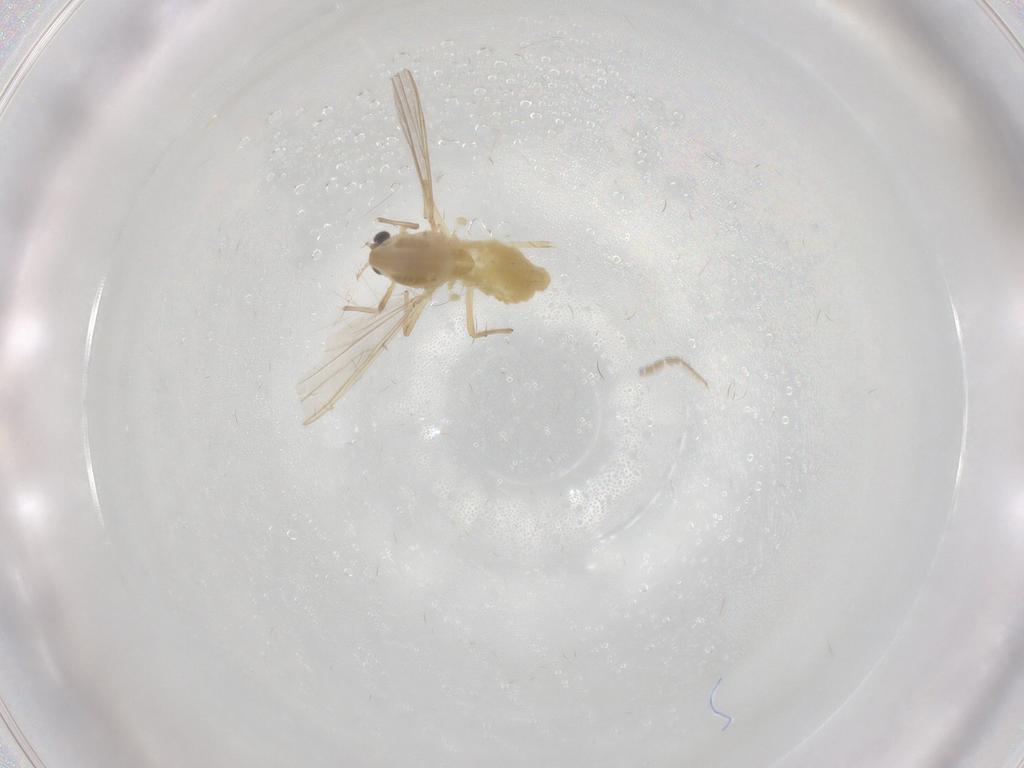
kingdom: Animalia
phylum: Arthropoda
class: Insecta
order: Diptera
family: Chironomidae
